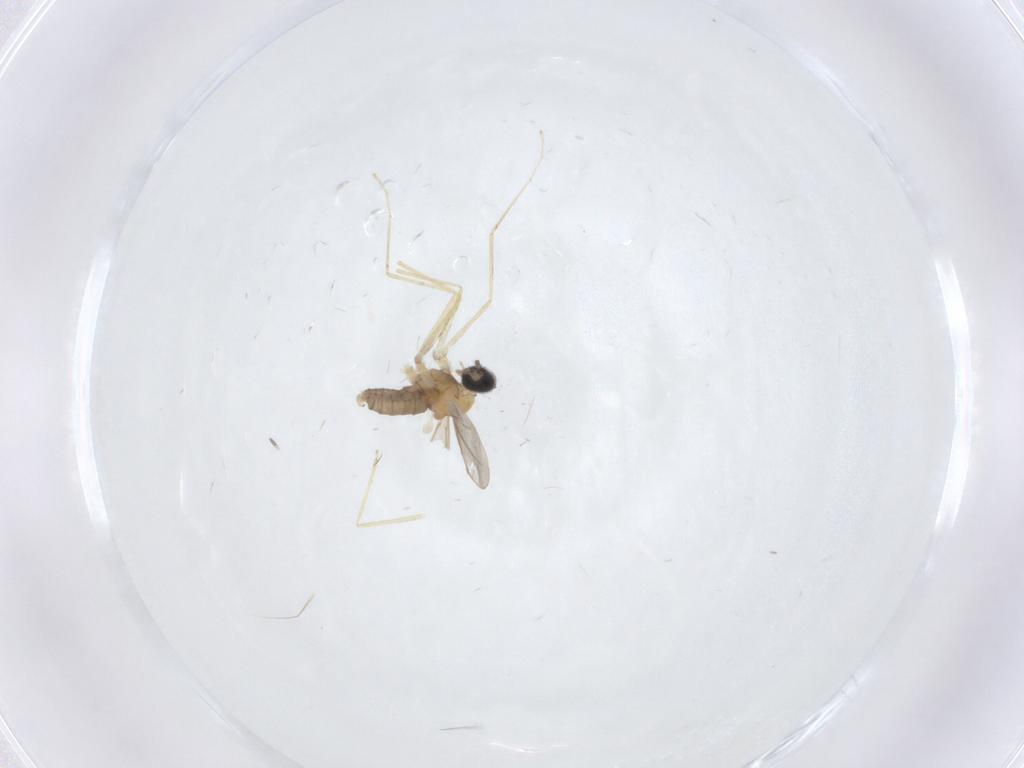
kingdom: Animalia
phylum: Arthropoda
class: Insecta
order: Diptera
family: Cecidomyiidae
